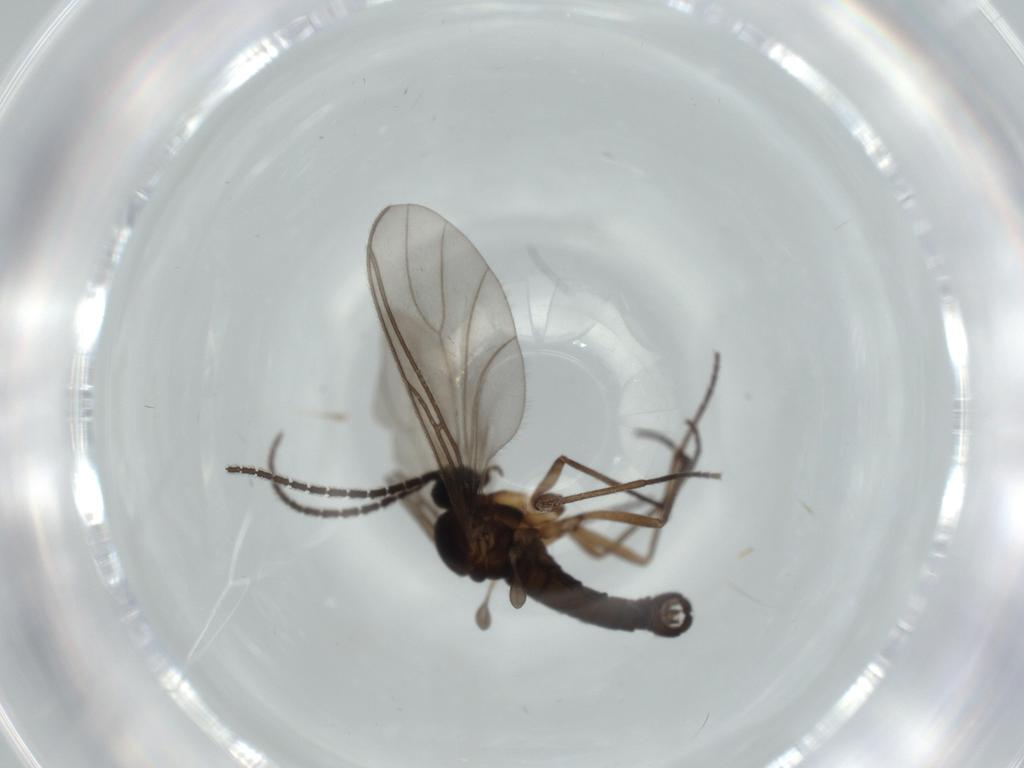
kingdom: Animalia
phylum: Arthropoda
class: Insecta
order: Diptera
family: Sciaridae
